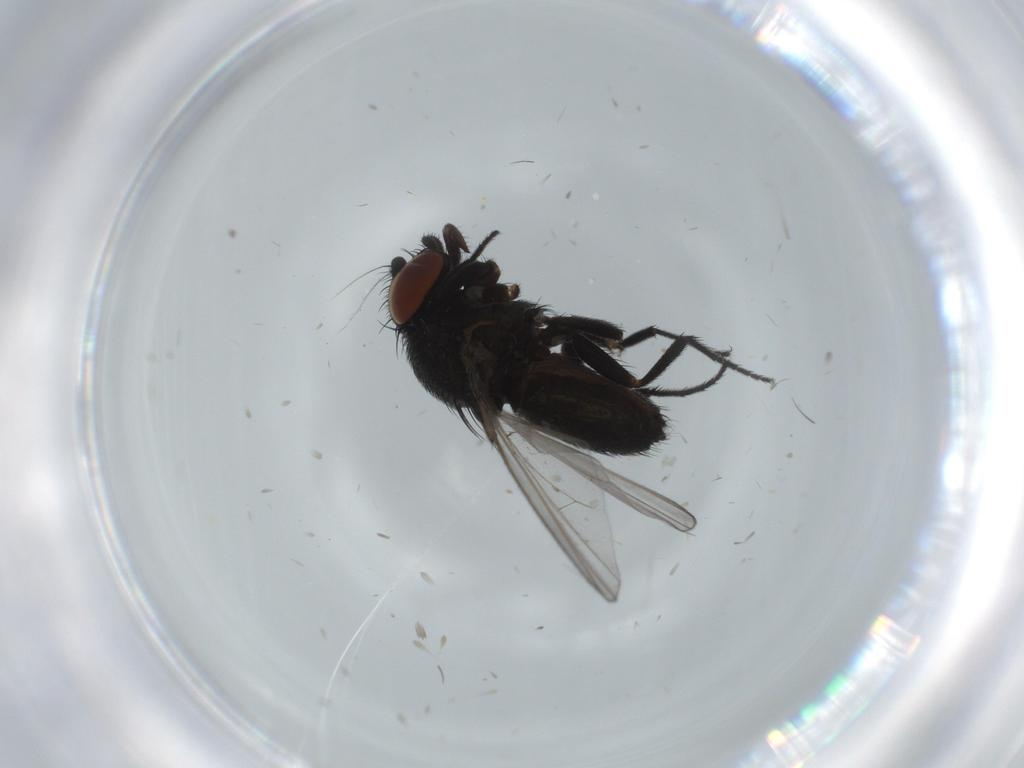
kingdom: Animalia
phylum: Arthropoda
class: Insecta
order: Diptera
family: Milichiidae
